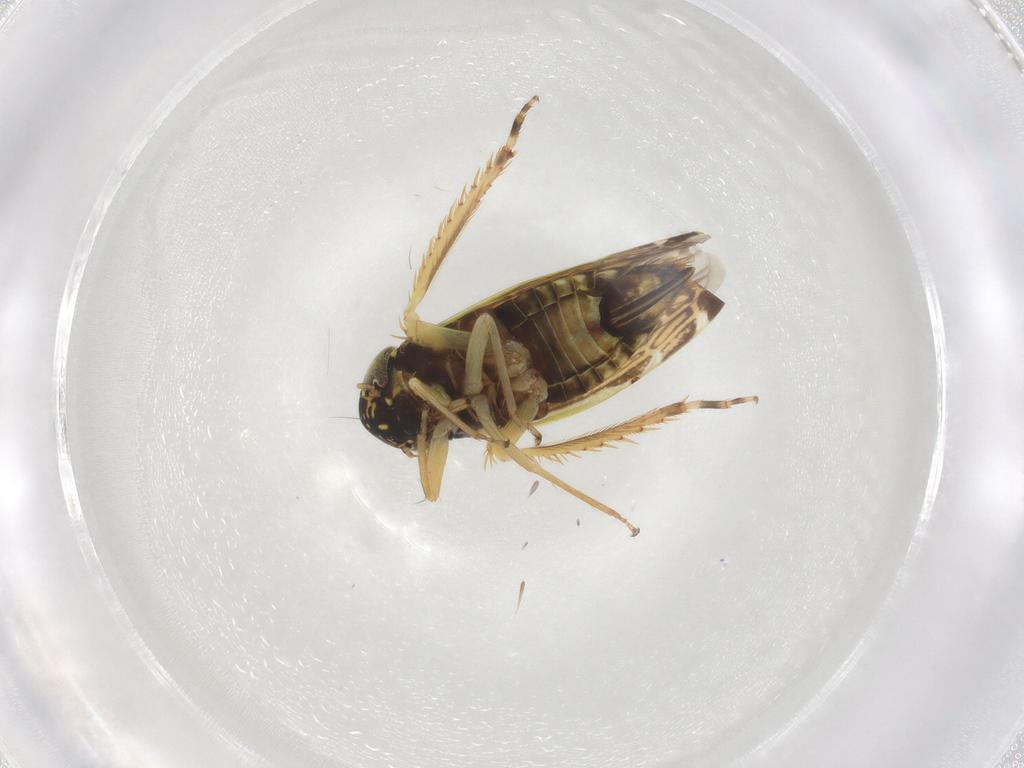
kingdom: Animalia
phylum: Arthropoda
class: Insecta
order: Hemiptera
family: Cicadellidae
